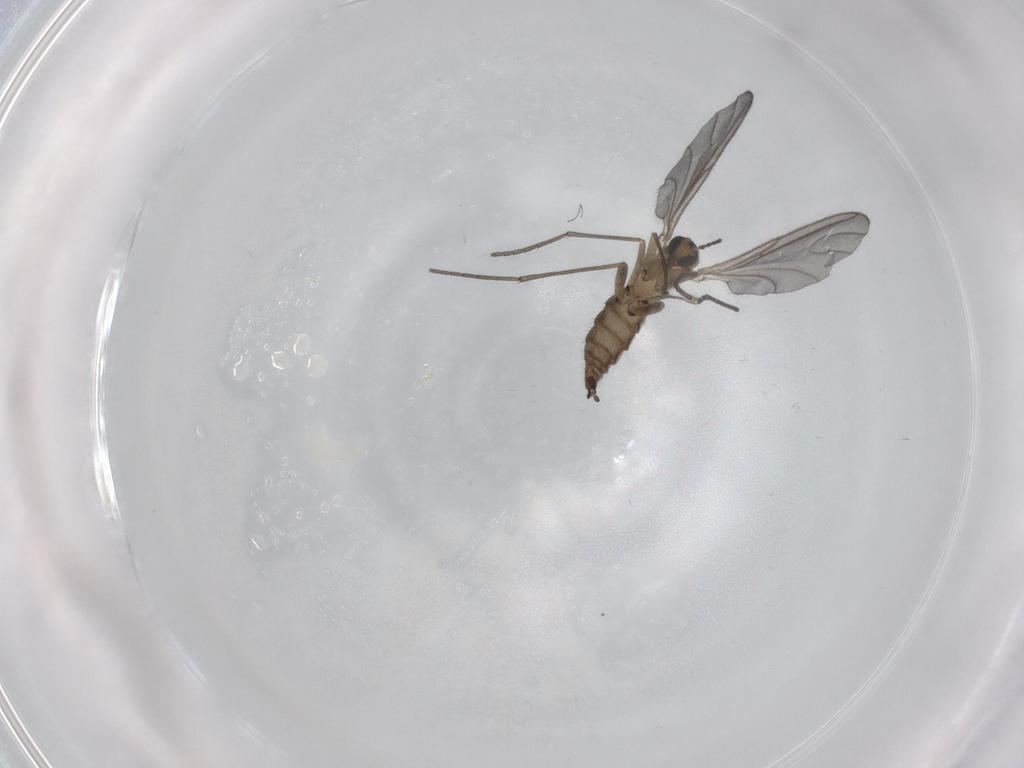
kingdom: Animalia
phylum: Arthropoda
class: Insecta
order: Diptera
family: Sciaridae
